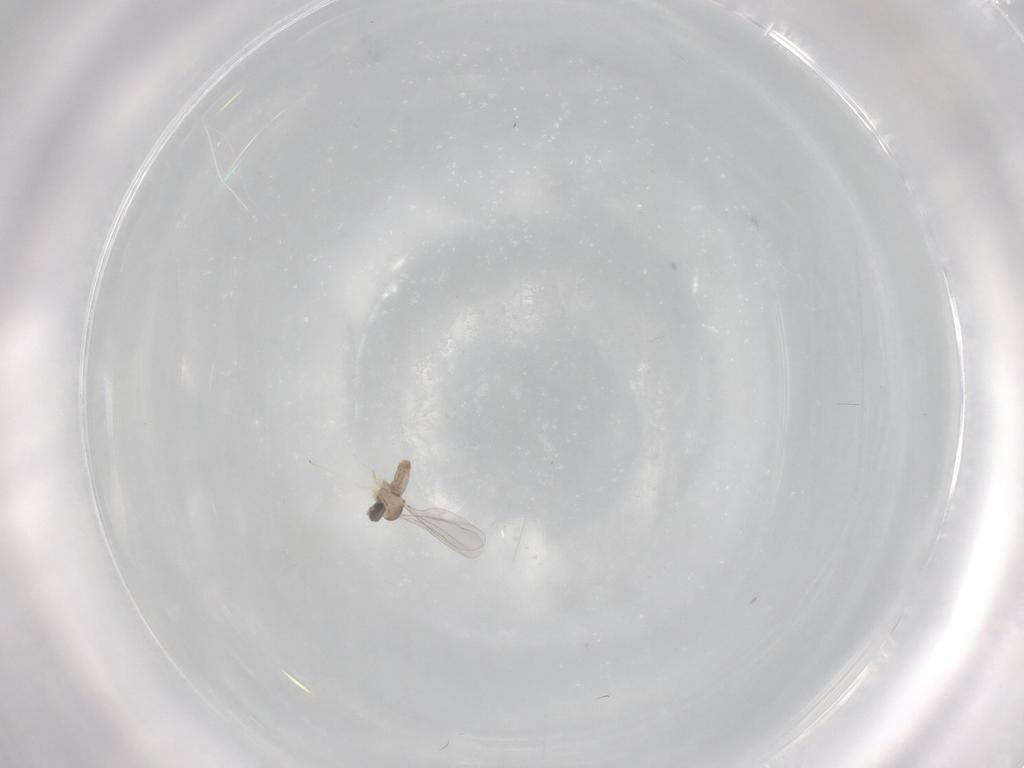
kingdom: Animalia
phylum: Arthropoda
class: Insecta
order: Diptera
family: Psychodidae
